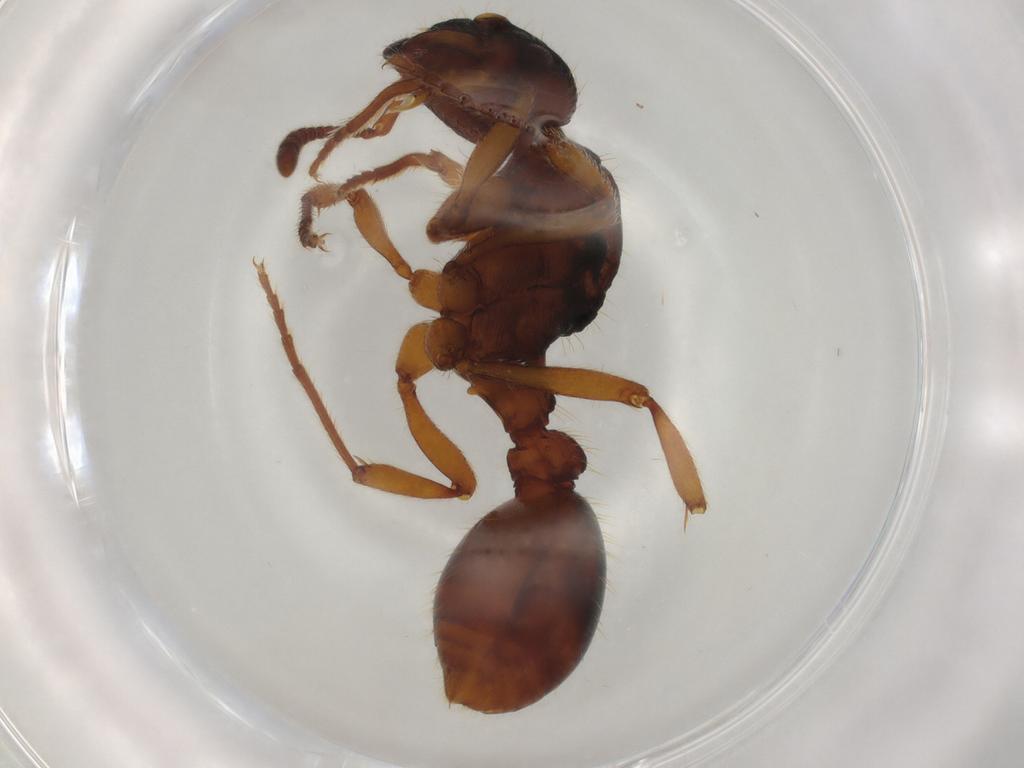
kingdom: Animalia
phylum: Arthropoda
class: Insecta
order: Hymenoptera
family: Formicidae
